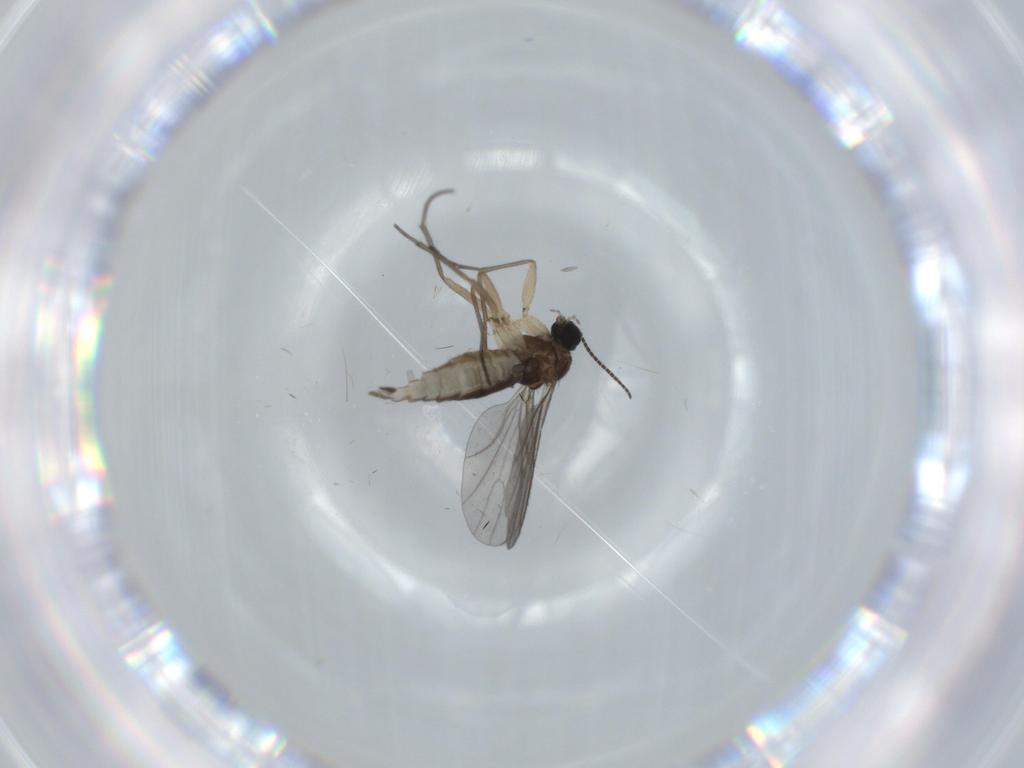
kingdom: Animalia
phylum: Arthropoda
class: Insecta
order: Diptera
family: Sciaridae
